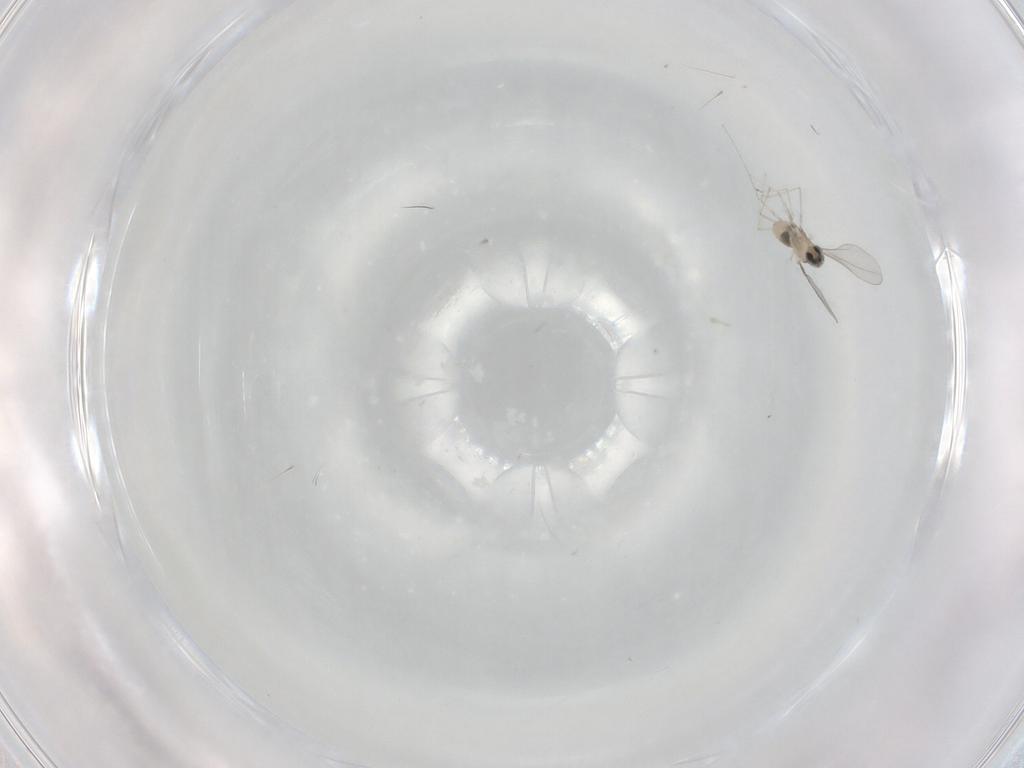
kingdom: Animalia
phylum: Arthropoda
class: Insecta
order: Diptera
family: Cecidomyiidae
